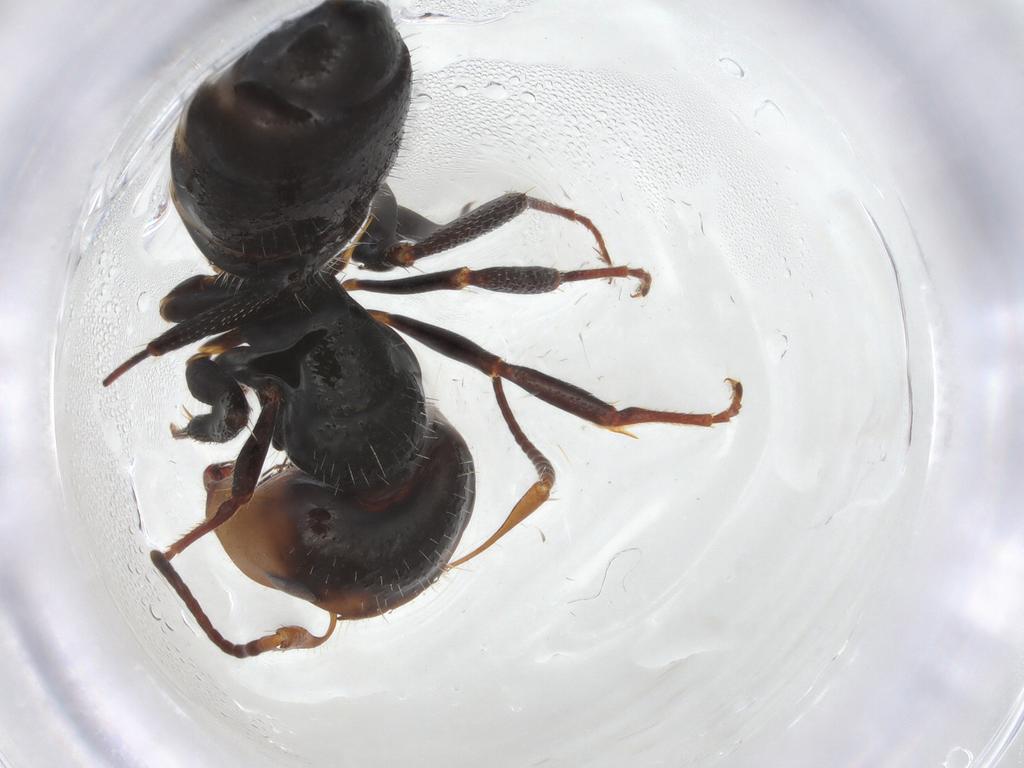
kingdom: Animalia
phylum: Arthropoda
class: Insecta
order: Hymenoptera
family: Formicidae
